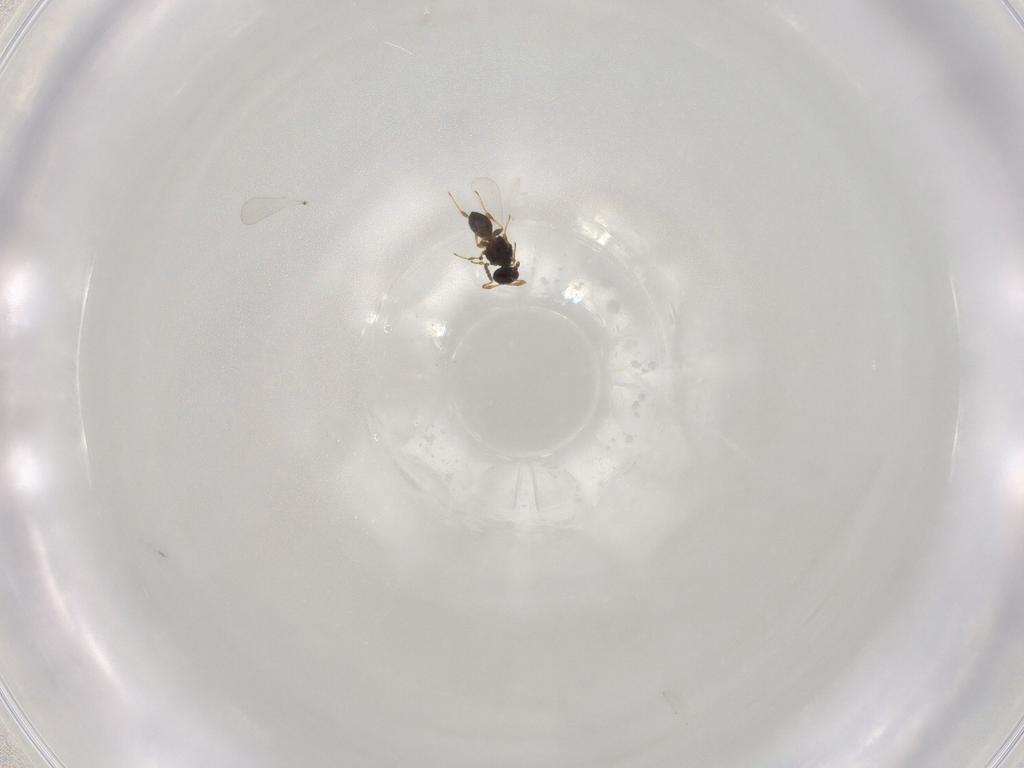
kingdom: Animalia
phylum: Arthropoda
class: Insecta
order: Hymenoptera
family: Platygastridae
